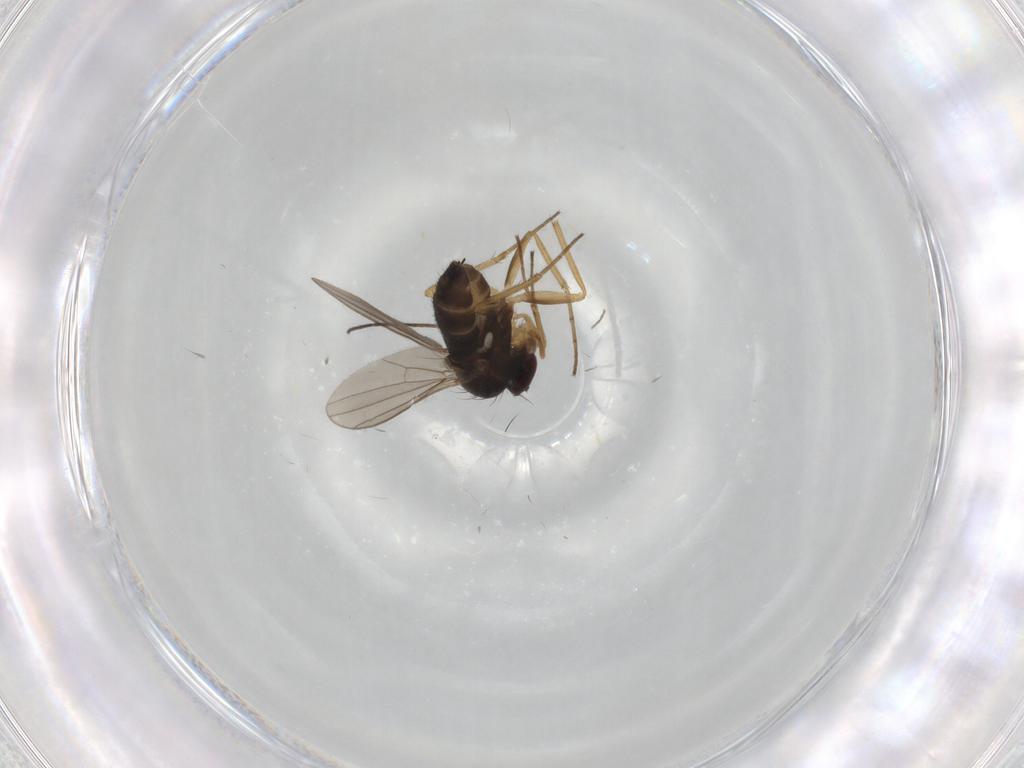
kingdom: Animalia
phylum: Arthropoda
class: Insecta
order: Diptera
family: Dolichopodidae
